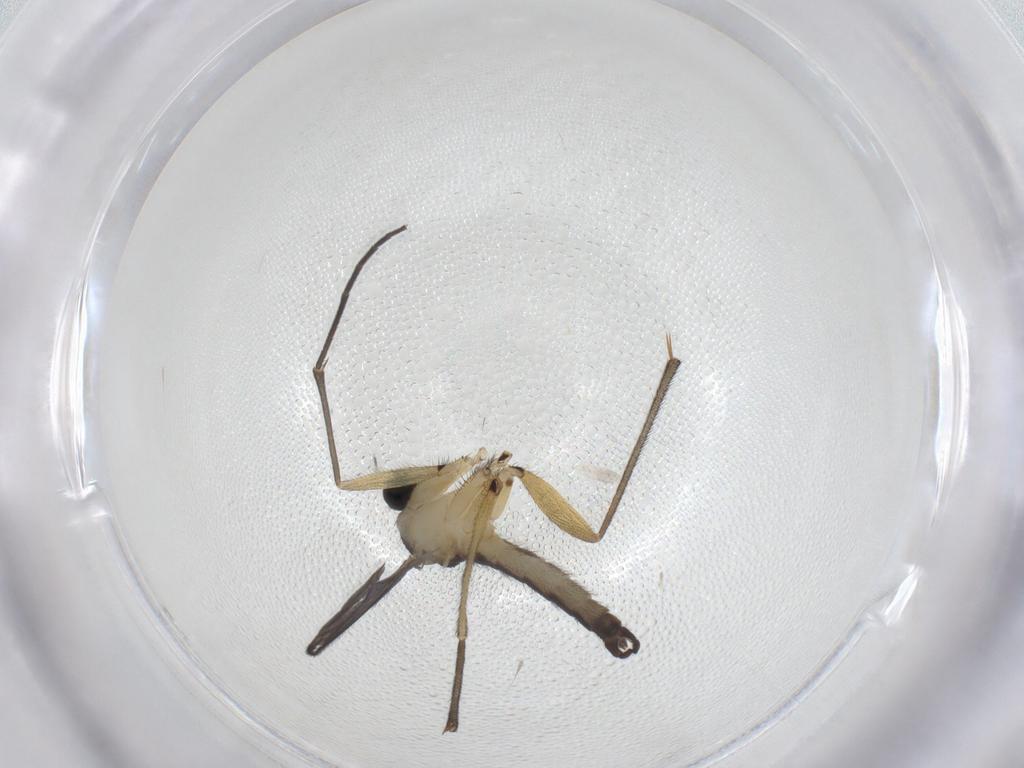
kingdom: Animalia
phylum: Arthropoda
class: Insecta
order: Diptera
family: Sciaridae
